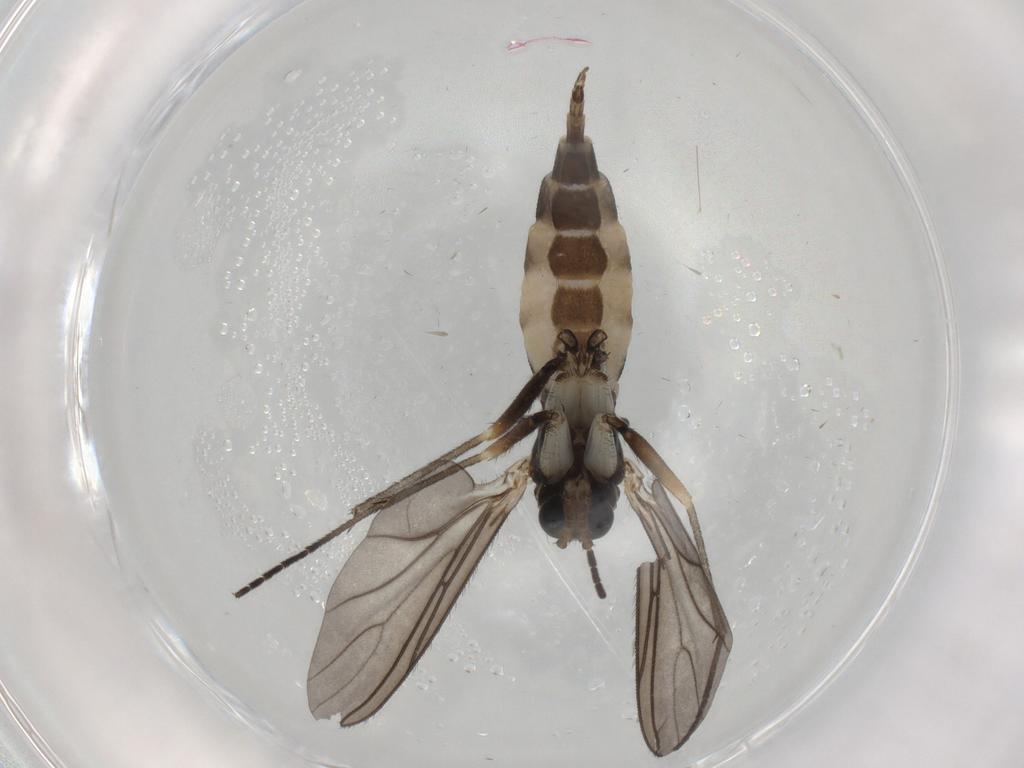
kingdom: Animalia
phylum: Arthropoda
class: Insecta
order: Diptera
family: Sciaridae
